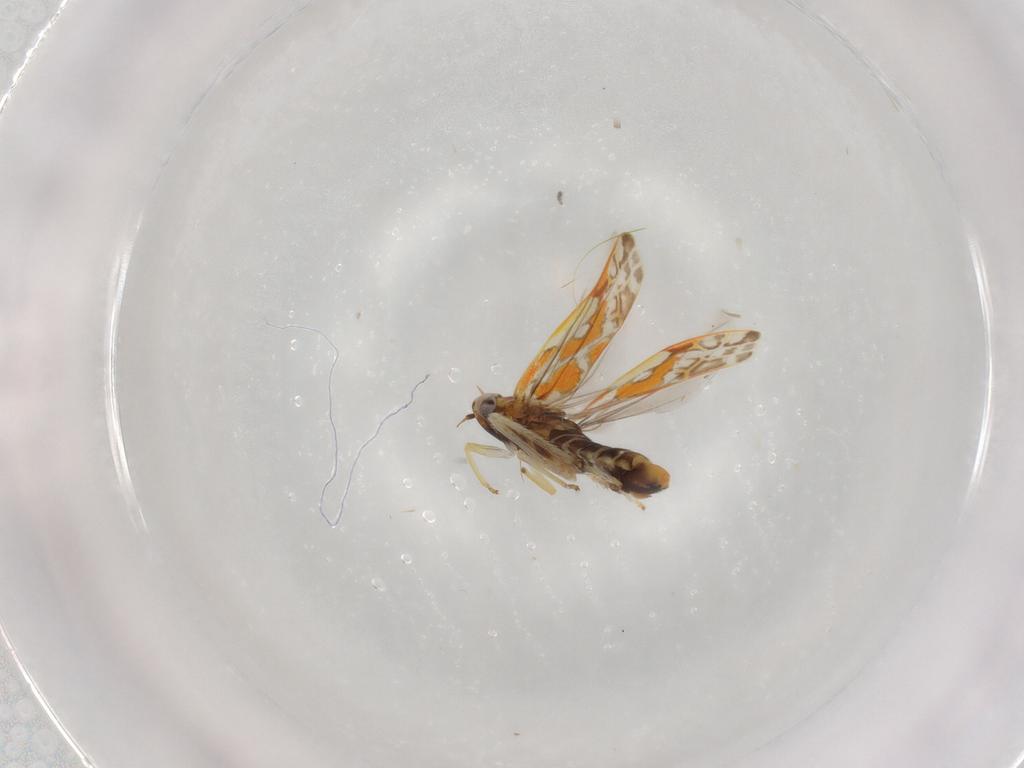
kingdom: Animalia
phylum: Arthropoda
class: Insecta
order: Hemiptera
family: Cicadellidae
